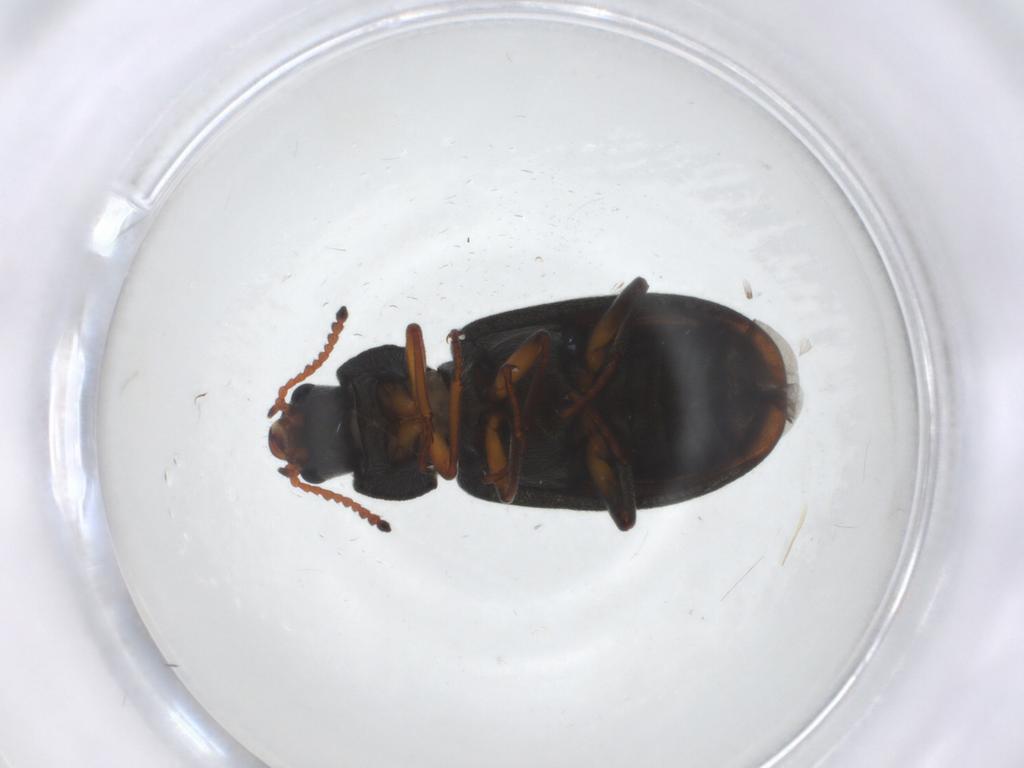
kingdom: Animalia
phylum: Arthropoda
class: Insecta
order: Coleoptera
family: Melyridae
